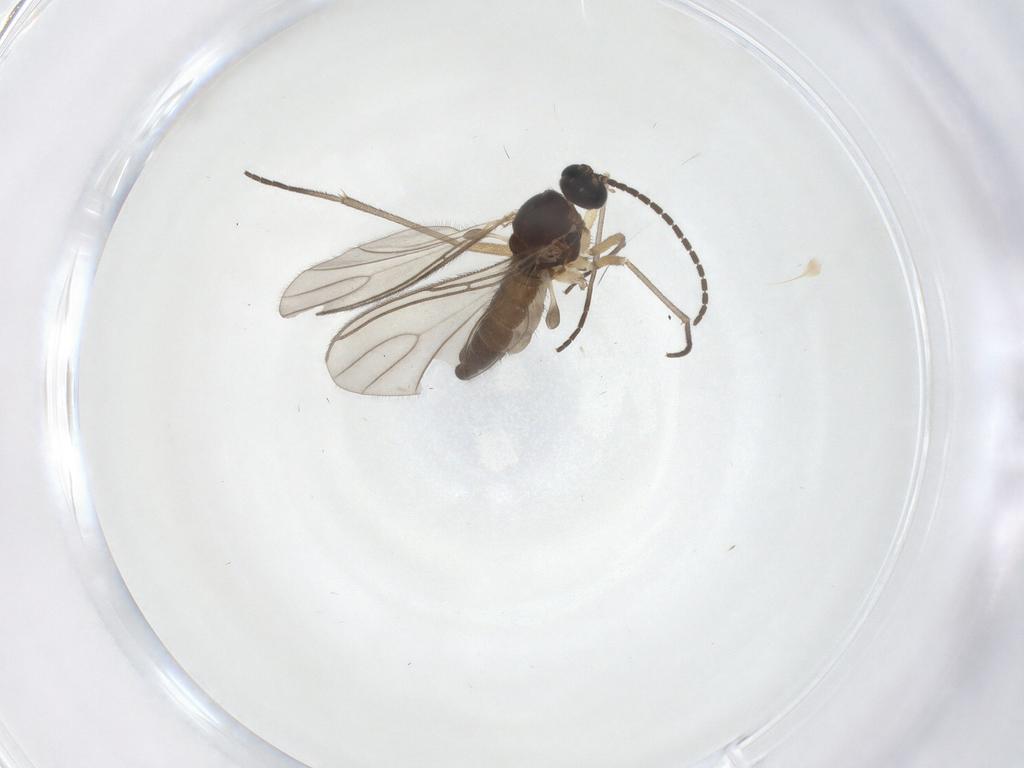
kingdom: Animalia
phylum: Arthropoda
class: Insecta
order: Diptera
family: Sciaridae
